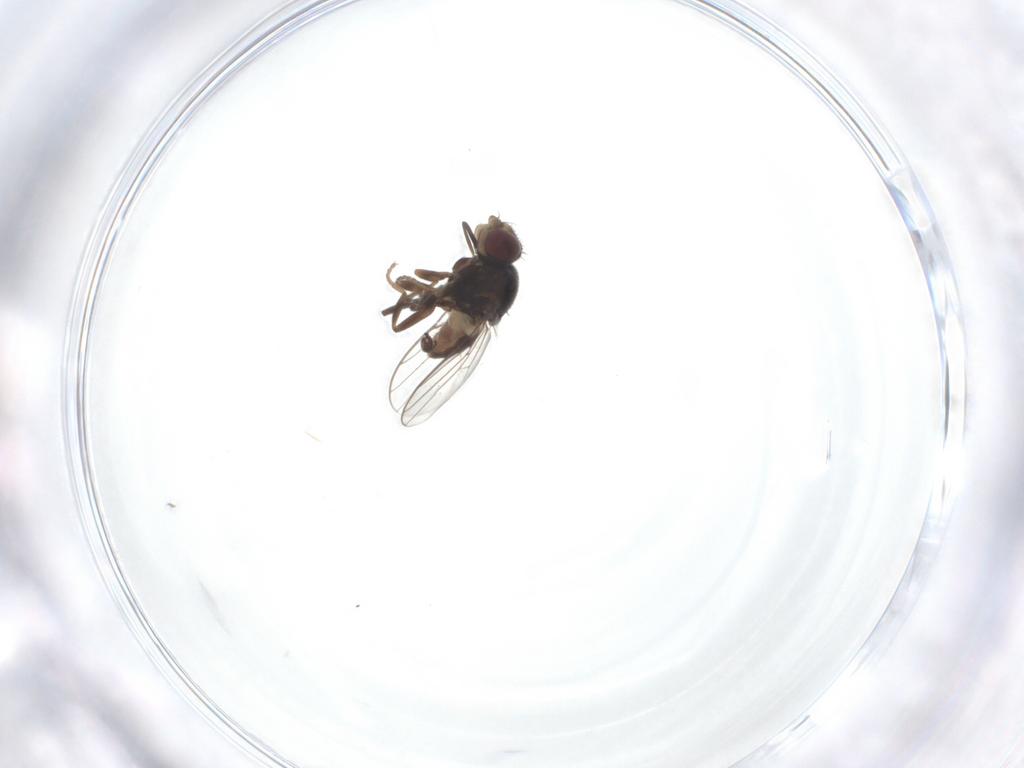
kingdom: Animalia
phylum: Arthropoda
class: Insecta
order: Diptera
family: Chloropidae
